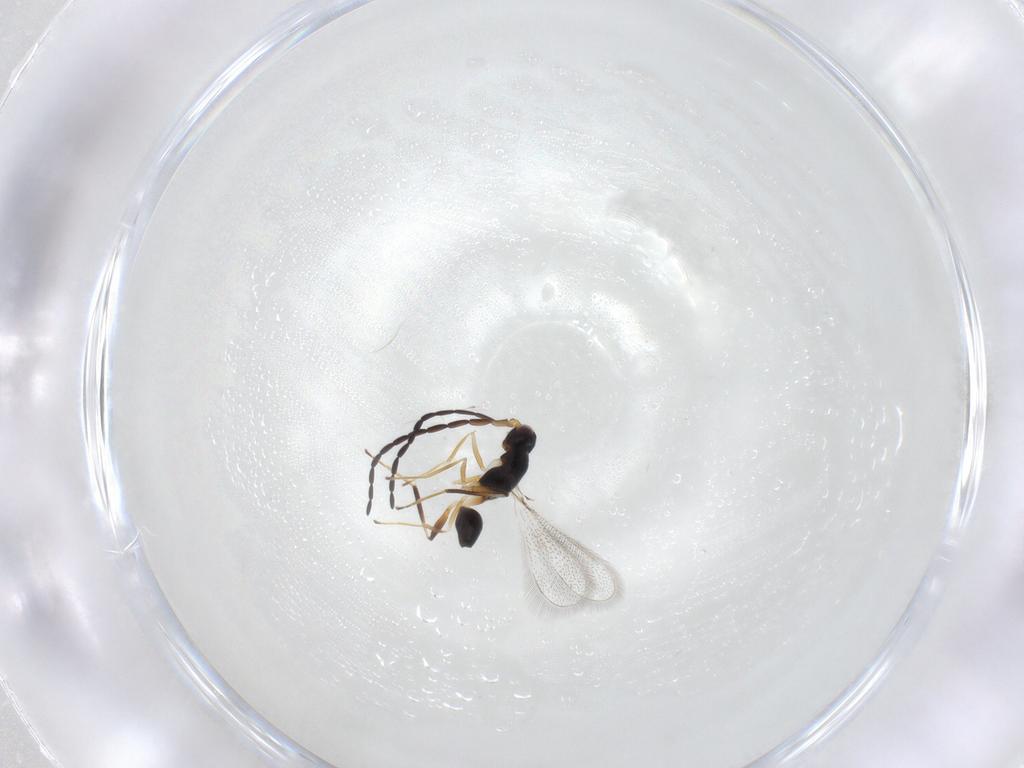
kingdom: Animalia
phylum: Arthropoda
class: Insecta
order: Hymenoptera
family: Mymaridae
